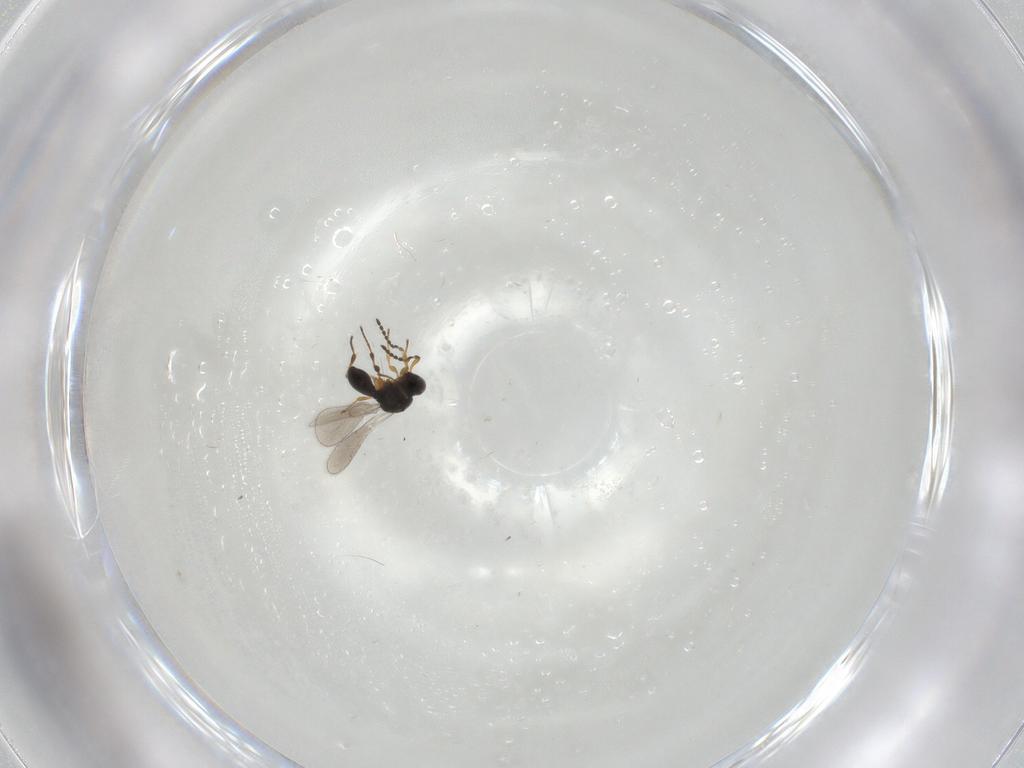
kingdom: Animalia
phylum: Arthropoda
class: Insecta
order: Hymenoptera
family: Platygastridae
